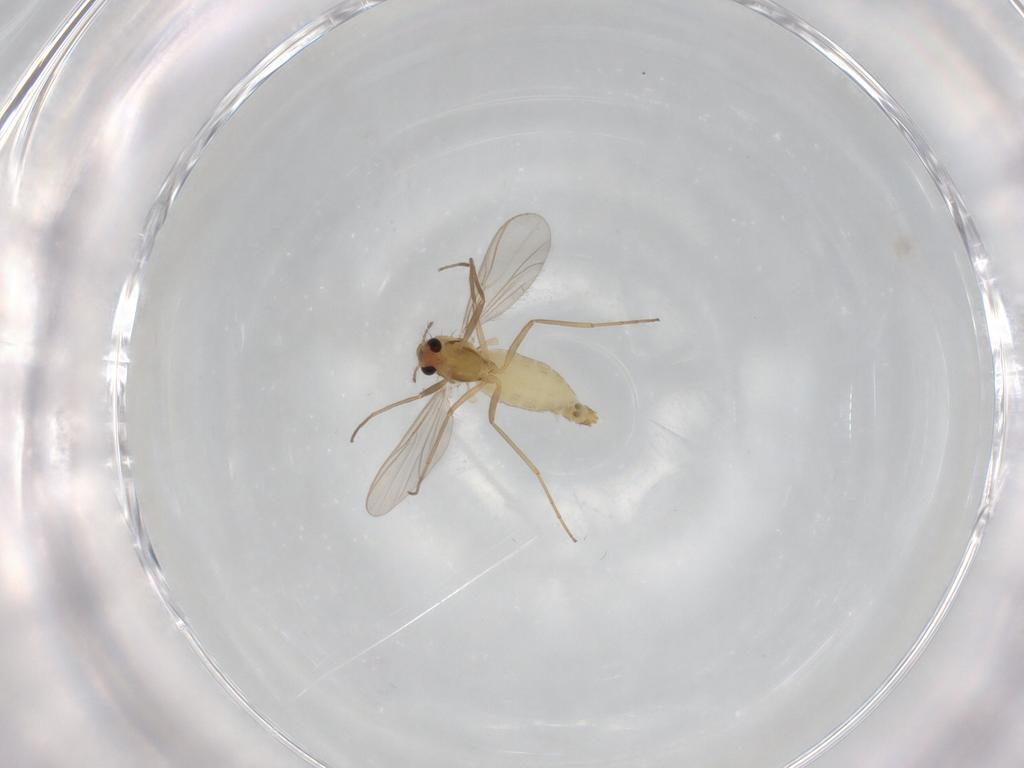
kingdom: Animalia
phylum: Arthropoda
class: Insecta
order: Diptera
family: Chironomidae
